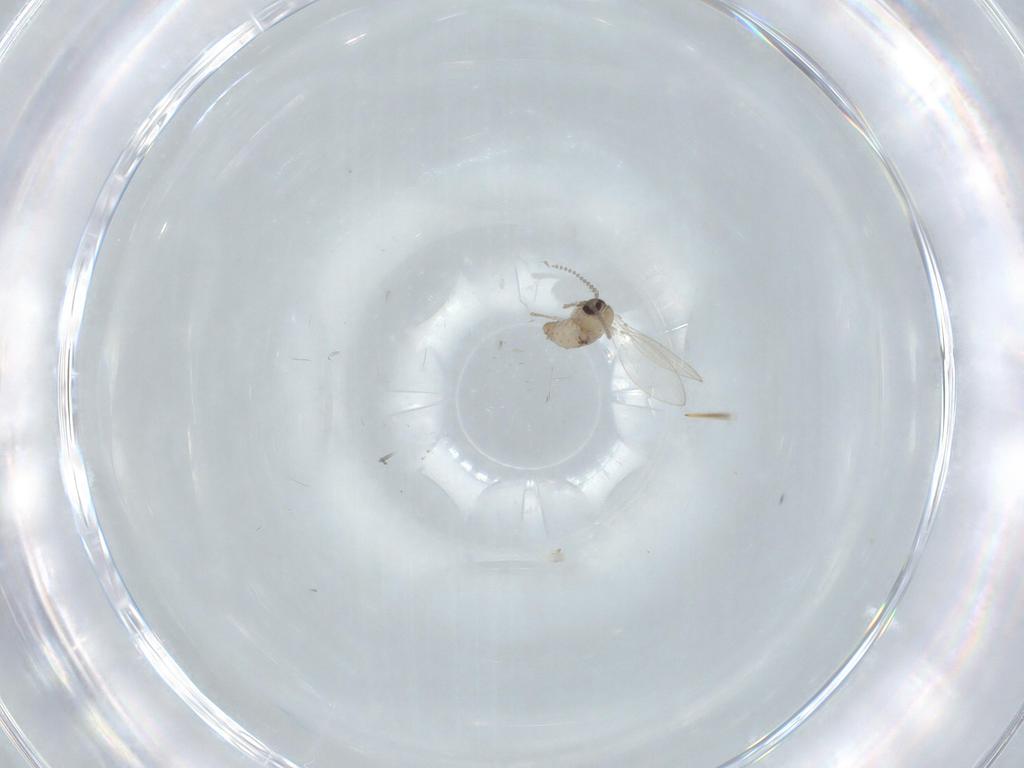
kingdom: Animalia
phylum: Arthropoda
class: Insecta
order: Diptera
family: Psychodidae
